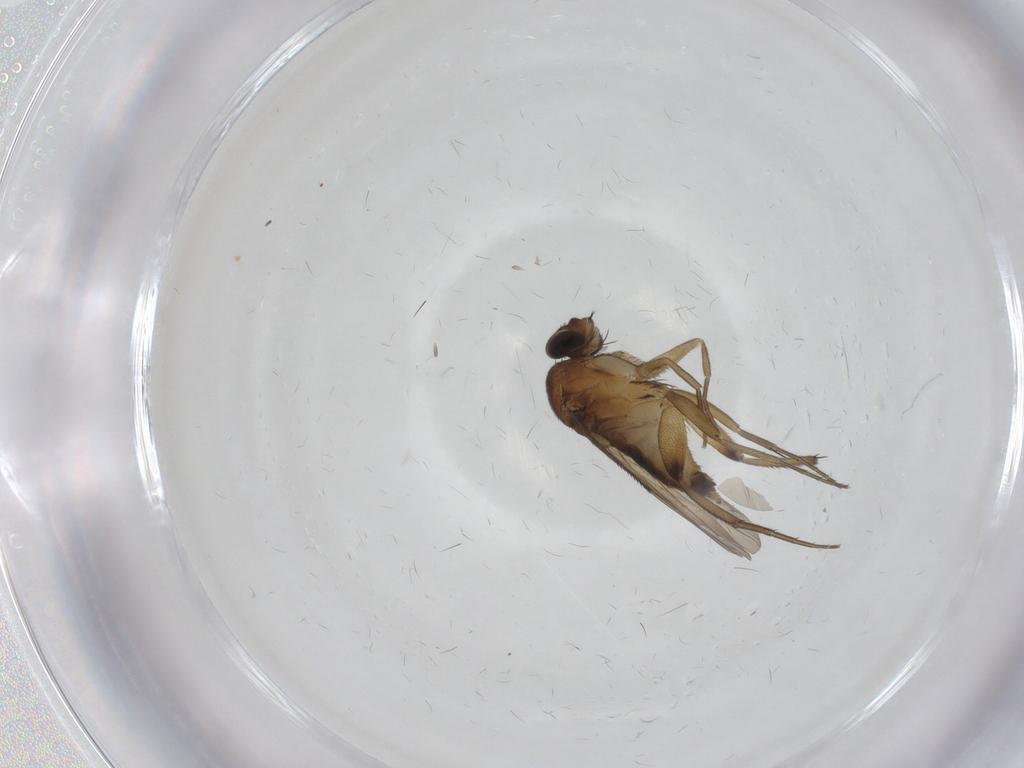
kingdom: Animalia
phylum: Arthropoda
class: Insecta
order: Diptera
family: Phoridae
